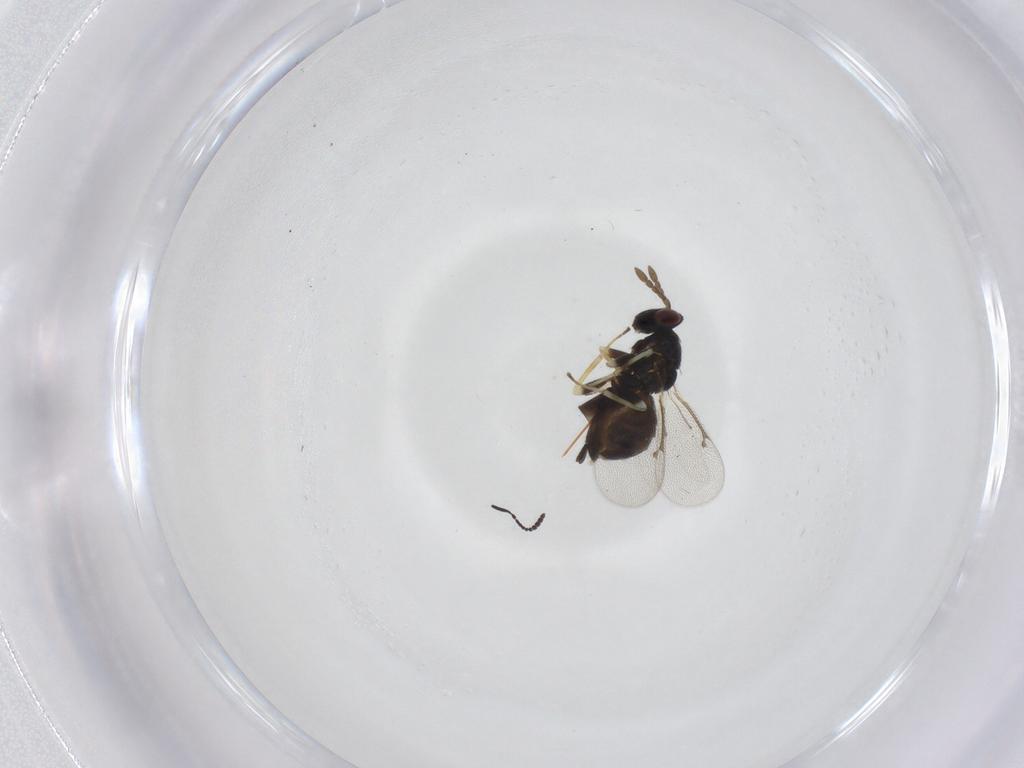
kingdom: Animalia
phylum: Arthropoda
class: Insecta
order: Hymenoptera
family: Eulophidae
